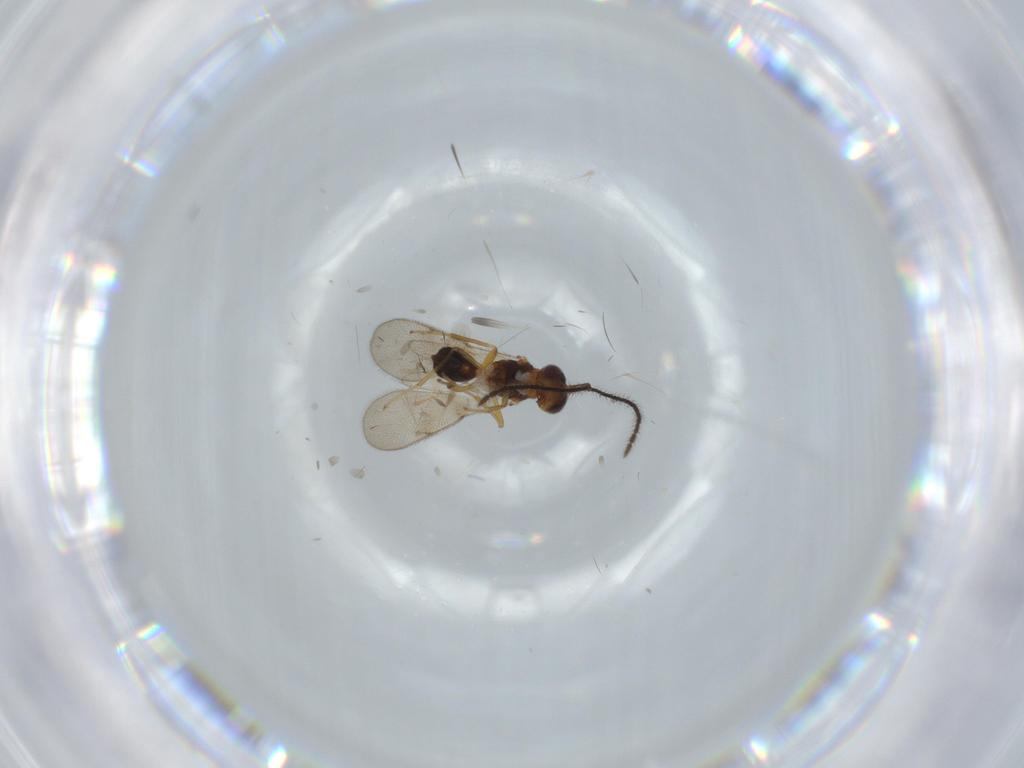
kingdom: Animalia
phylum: Arthropoda
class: Insecta
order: Hymenoptera
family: Diparidae
